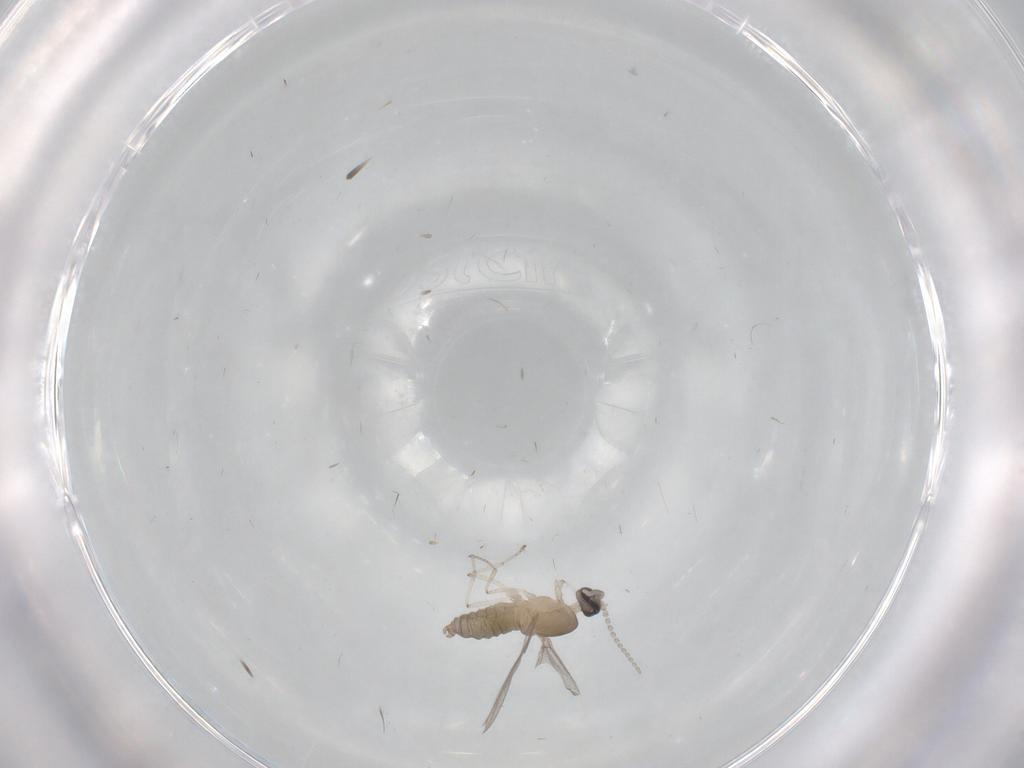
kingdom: Animalia
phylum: Arthropoda
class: Insecta
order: Diptera
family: Cecidomyiidae
